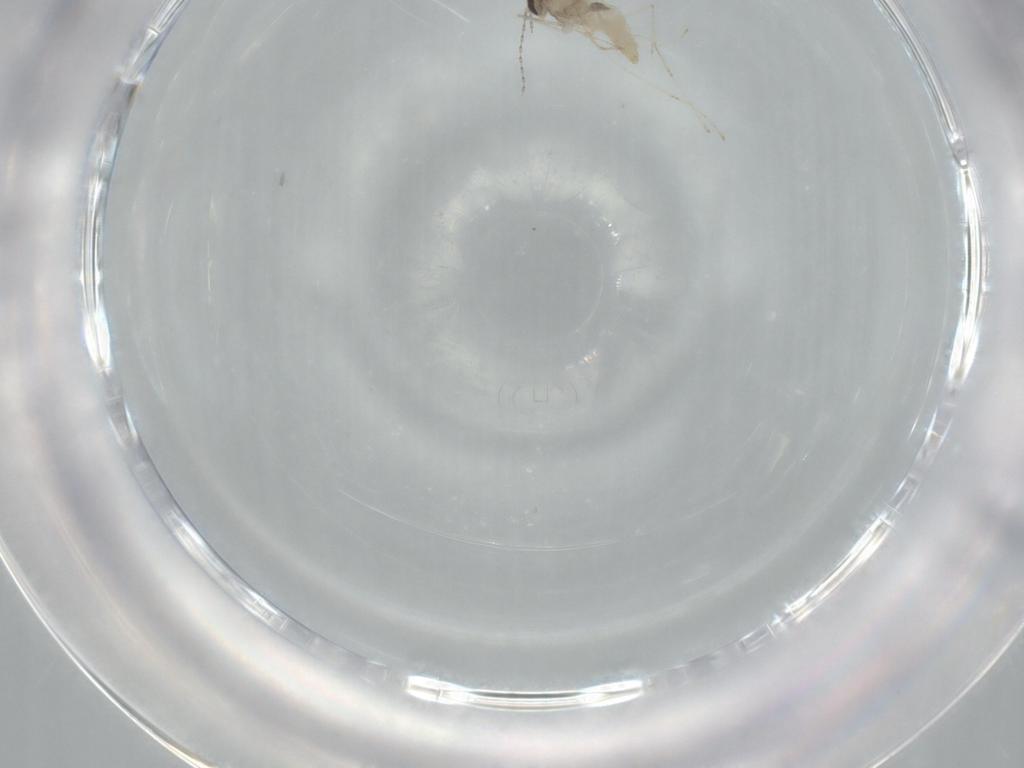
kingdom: Animalia
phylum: Arthropoda
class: Insecta
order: Diptera
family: Cecidomyiidae
